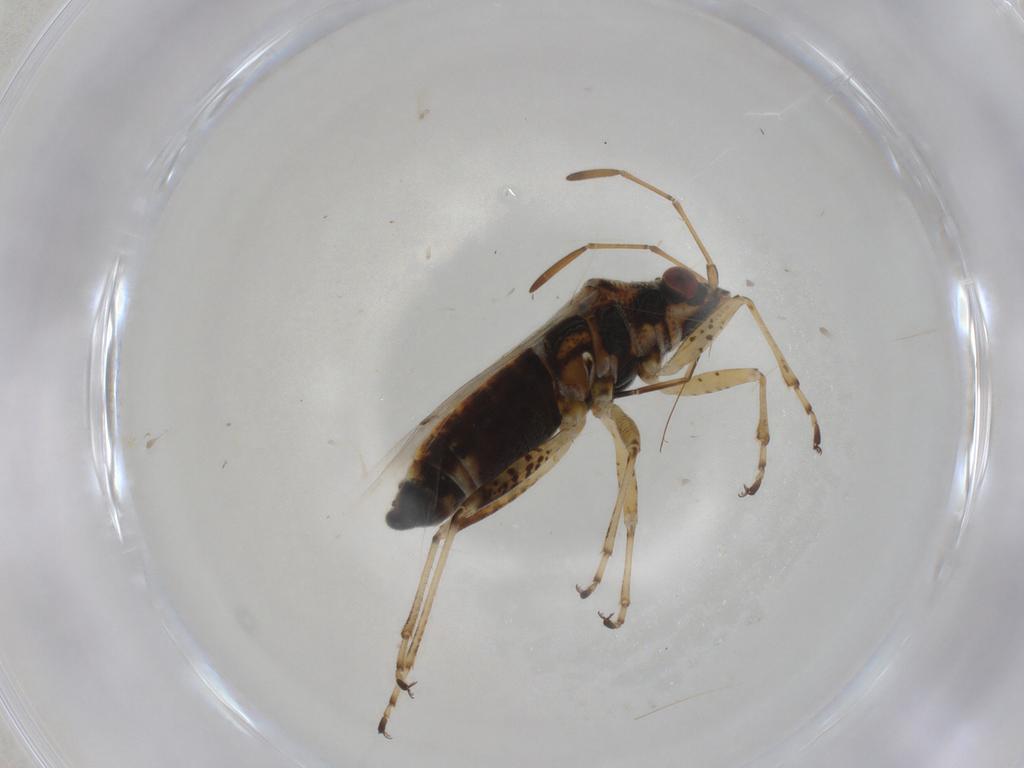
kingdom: Animalia
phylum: Arthropoda
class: Insecta
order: Hemiptera
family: Lygaeidae
